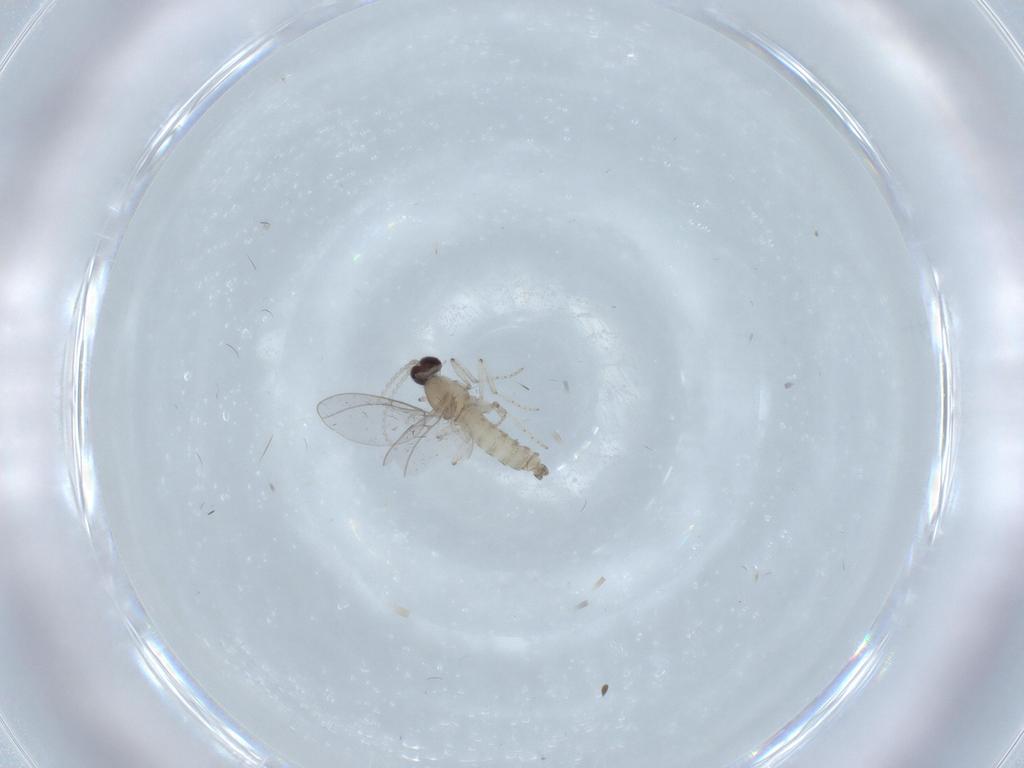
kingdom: Animalia
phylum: Arthropoda
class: Insecta
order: Diptera
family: Cecidomyiidae
